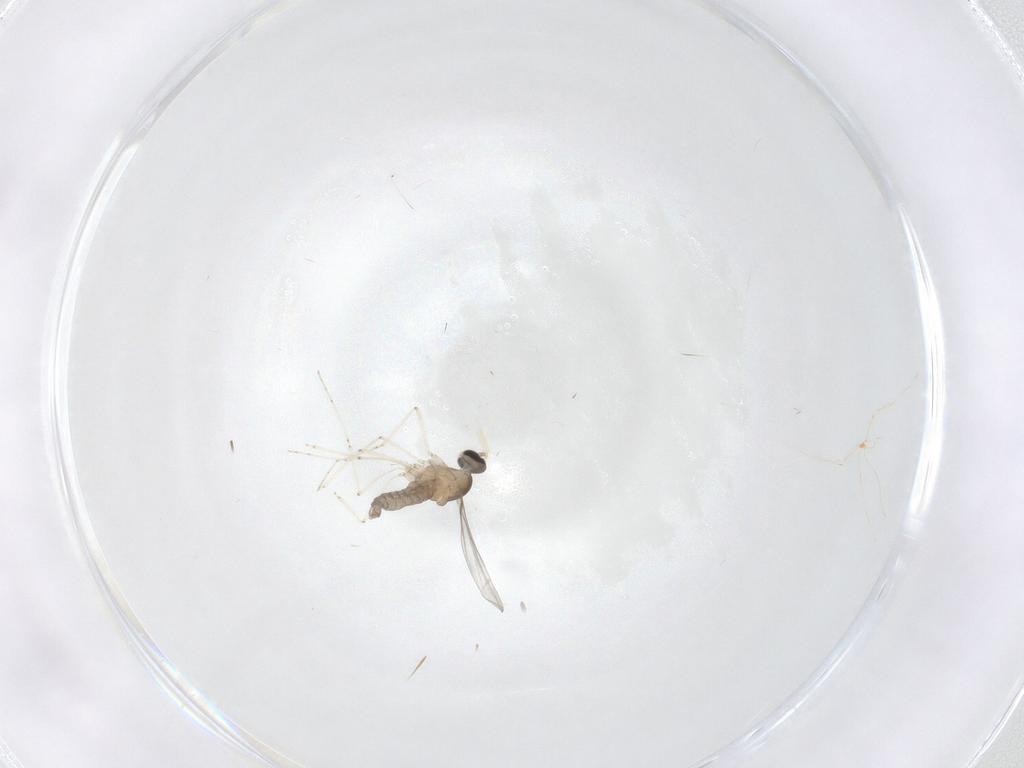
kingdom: Animalia
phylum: Arthropoda
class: Insecta
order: Diptera
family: Cecidomyiidae
